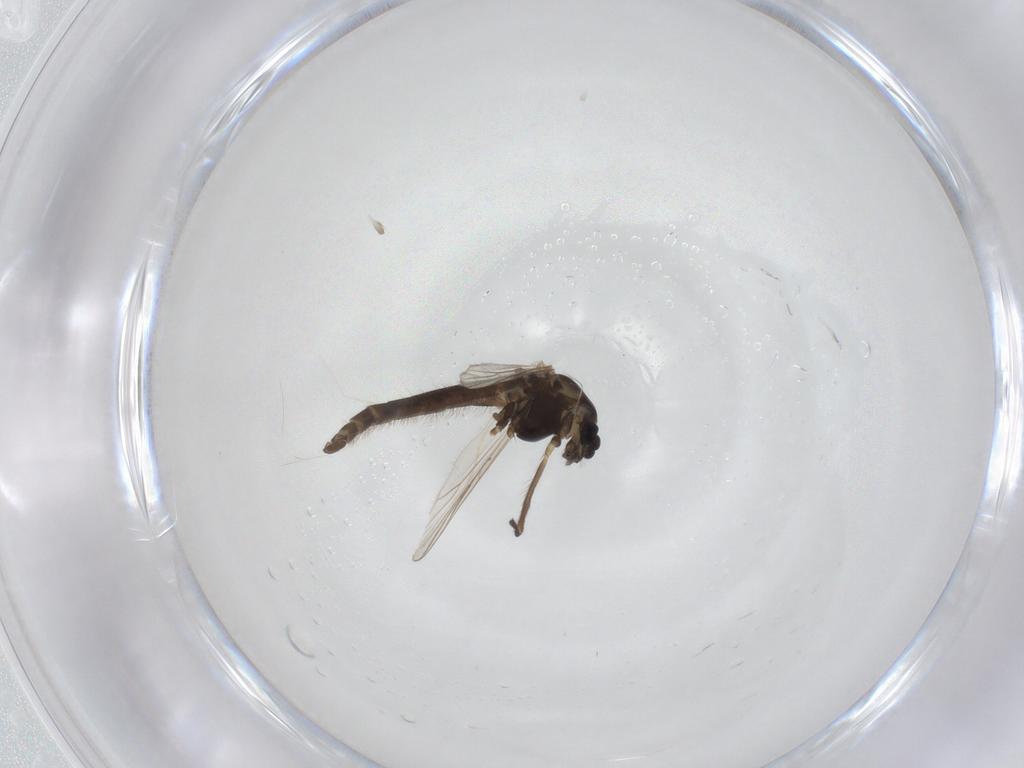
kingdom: Animalia
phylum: Arthropoda
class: Insecta
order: Diptera
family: Chironomidae
